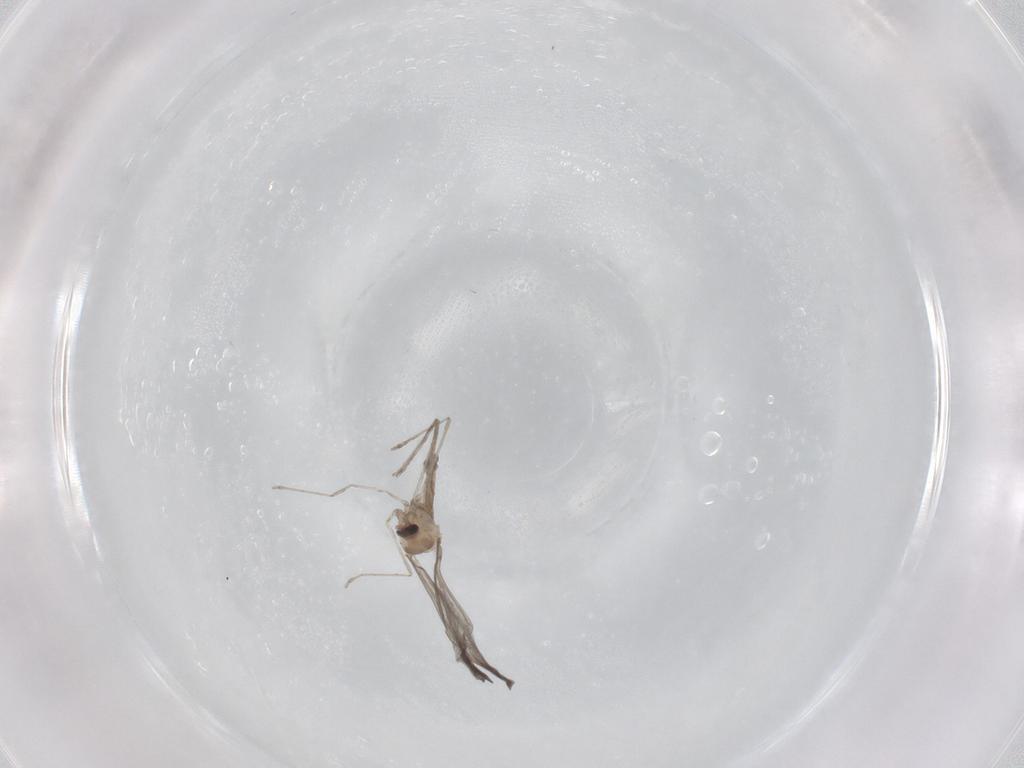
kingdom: Animalia
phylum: Arthropoda
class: Insecta
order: Diptera
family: Cecidomyiidae
